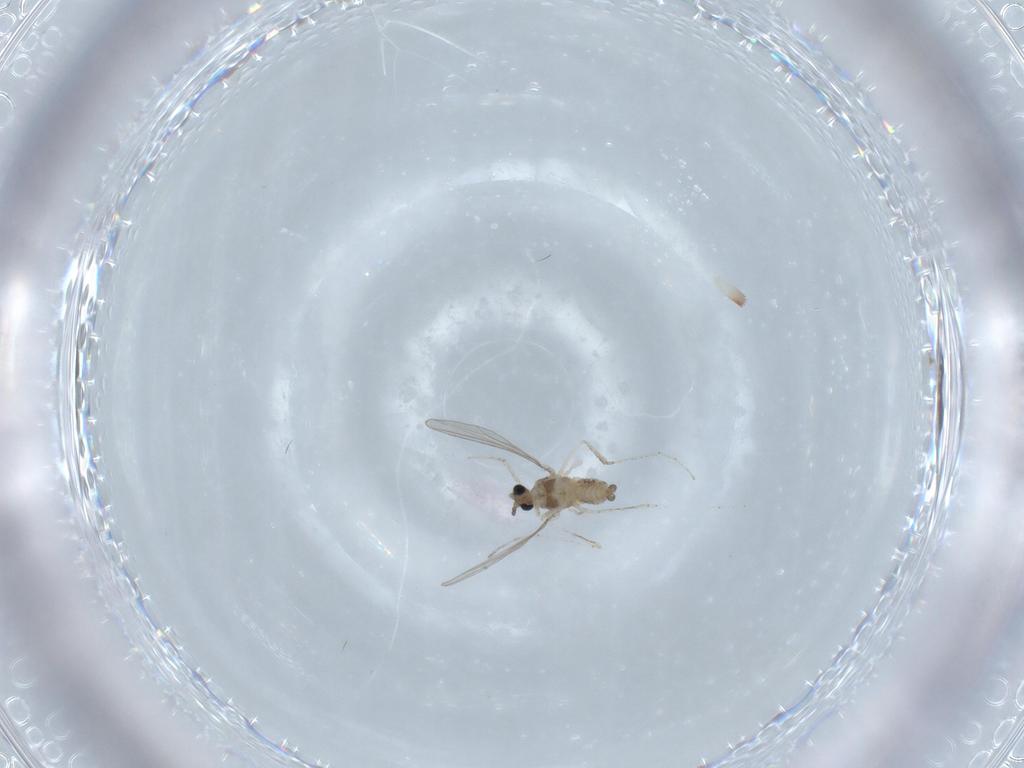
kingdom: Animalia
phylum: Arthropoda
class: Insecta
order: Diptera
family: Cecidomyiidae
